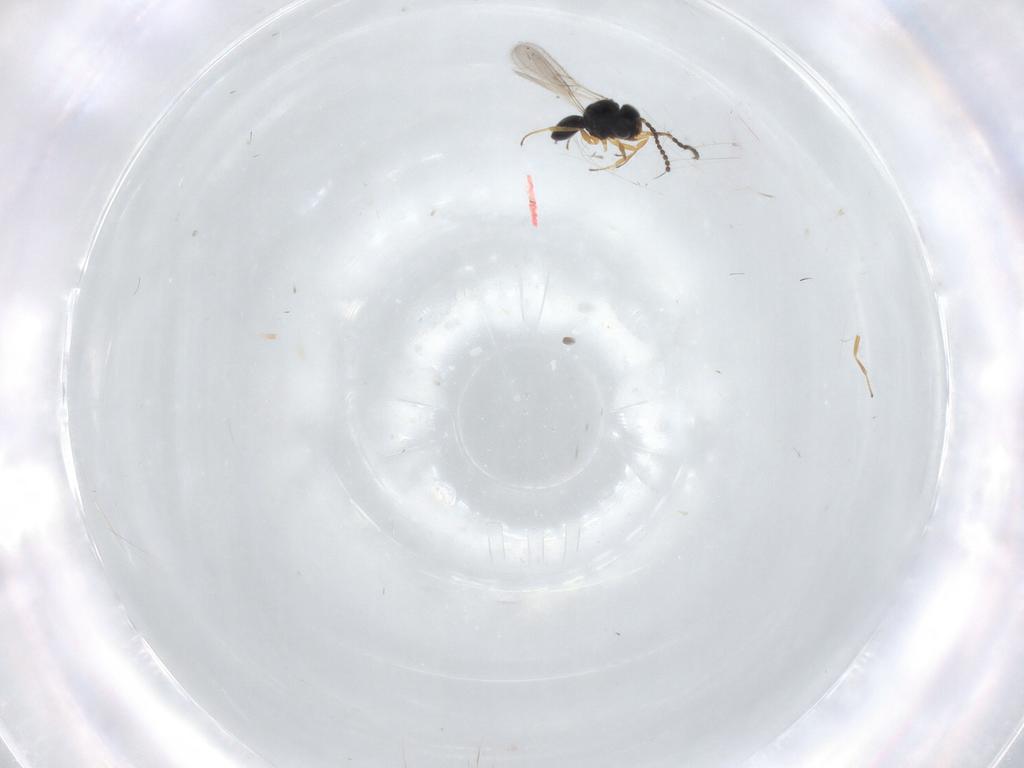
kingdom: Animalia
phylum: Arthropoda
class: Insecta
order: Hymenoptera
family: Scelionidae
